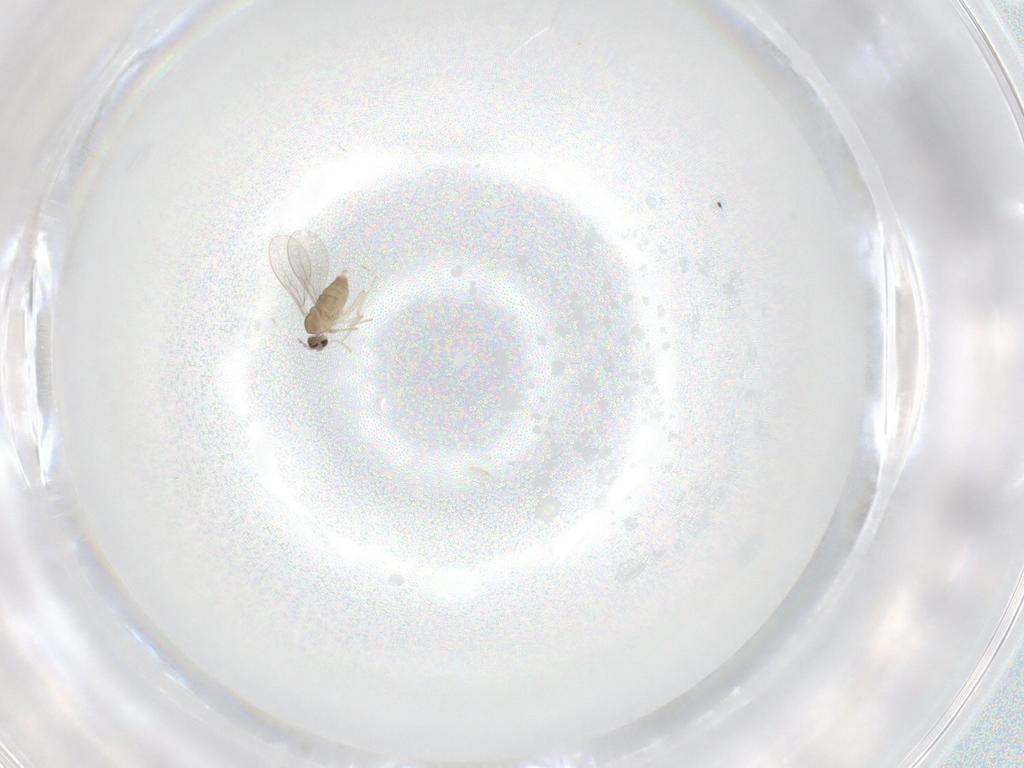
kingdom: Animalia
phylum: Arthropoda
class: Insecta
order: Diptera
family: Cecidomyiidae
